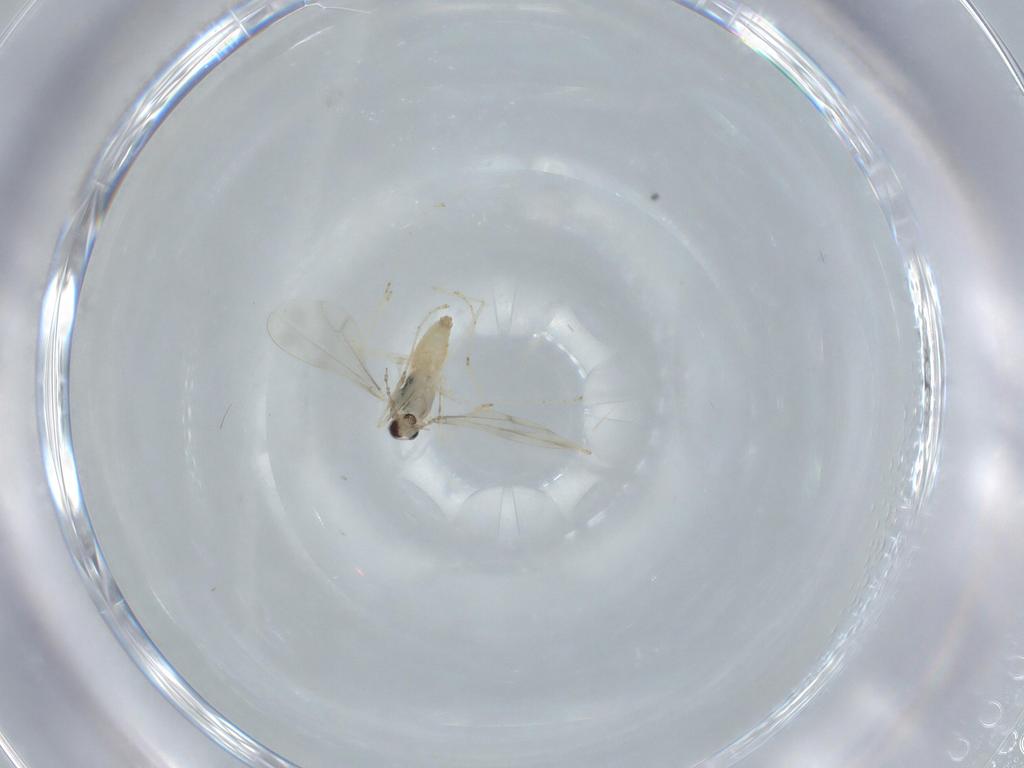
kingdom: Animalia
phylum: Arthropoda
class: Insecta
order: Diptera
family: Cecidomyiidae
